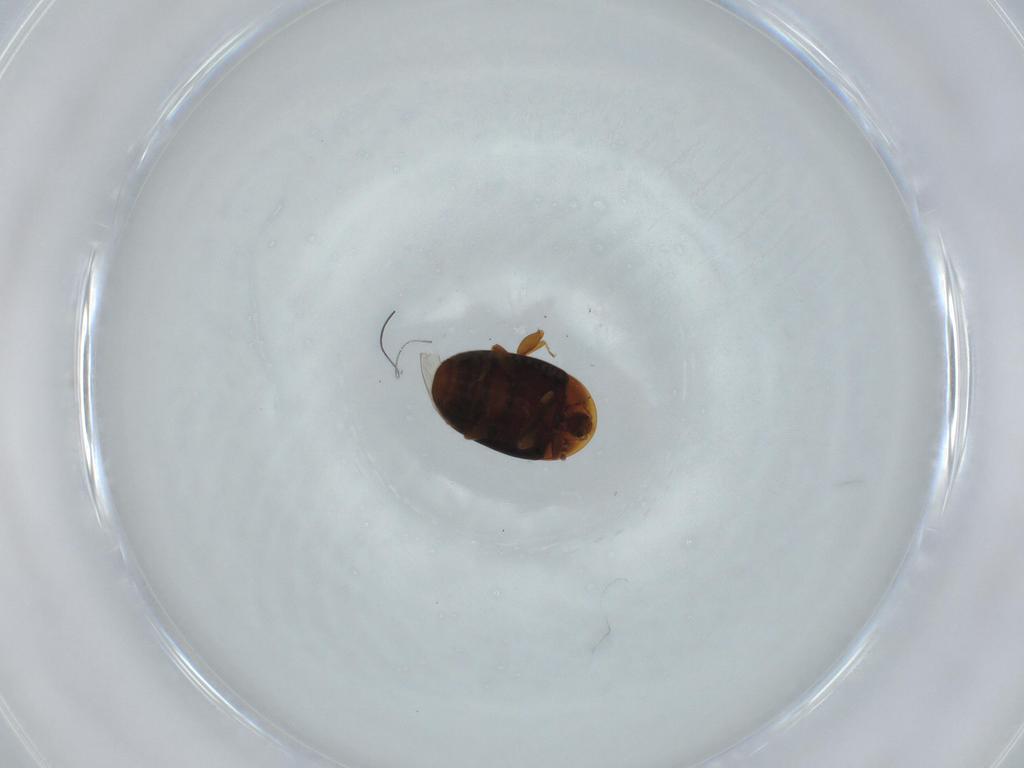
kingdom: Animalia
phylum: Arthropoda
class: Insecta
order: Coleoptera
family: Corylophidae
